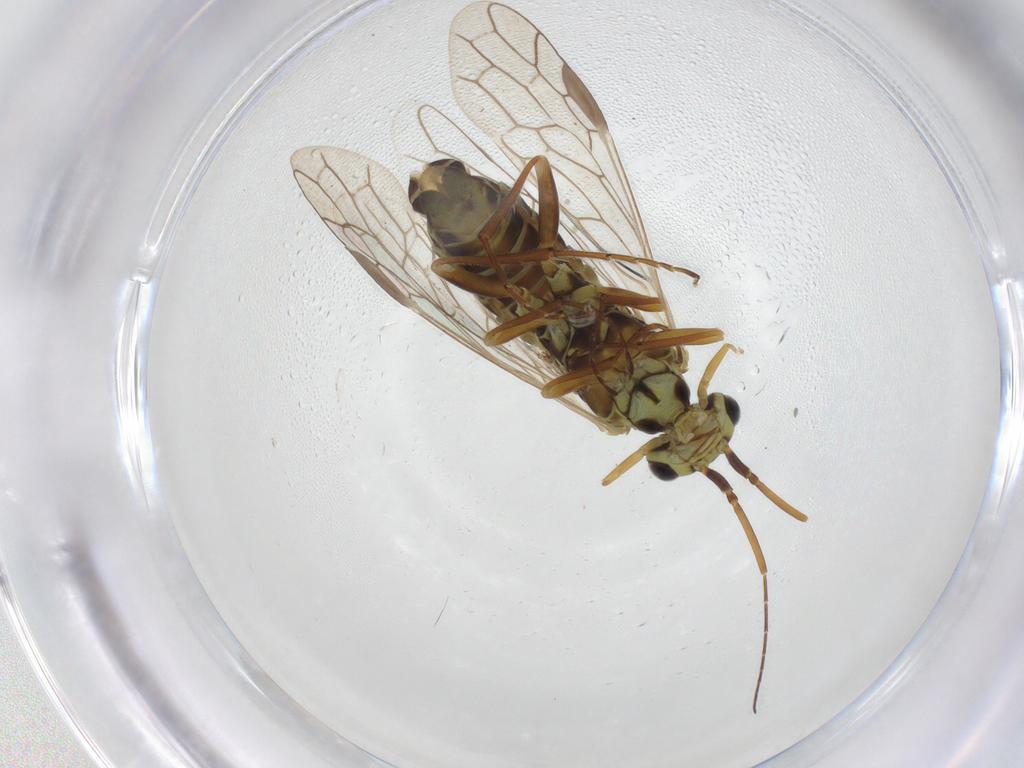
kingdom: Animalia
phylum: Arthropoda
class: Insecta
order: Hymenoptera
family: Xyelidae
